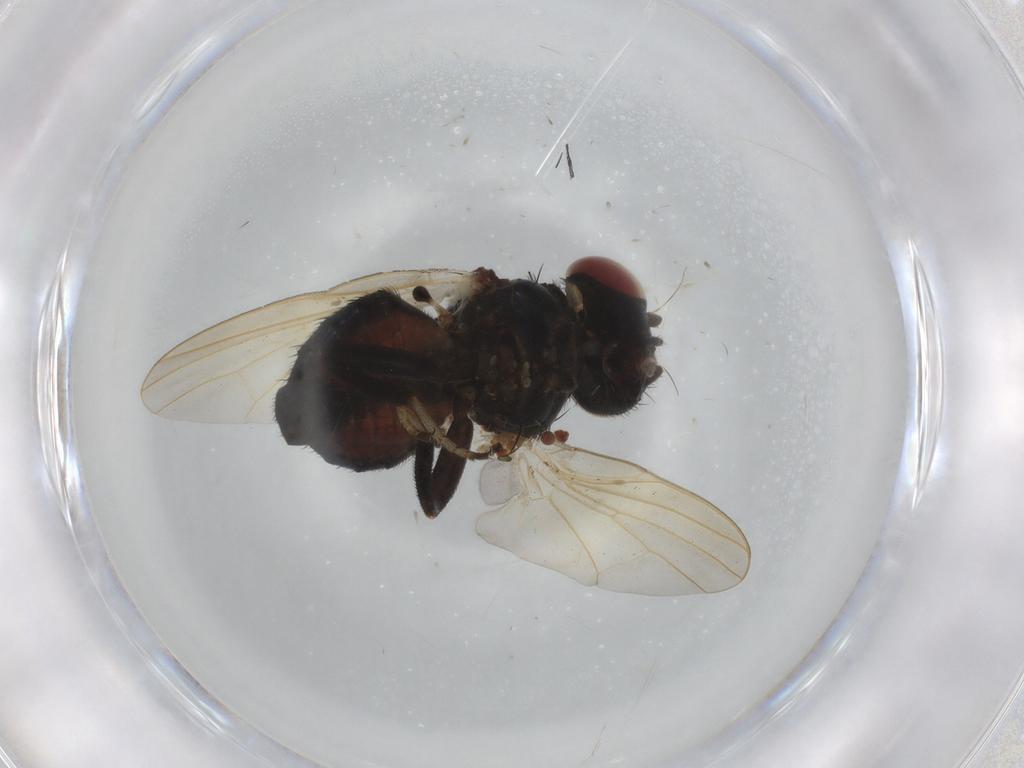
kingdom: Animalia
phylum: Arthropoda
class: Insecta
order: Diptera
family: Lonchaeidae
